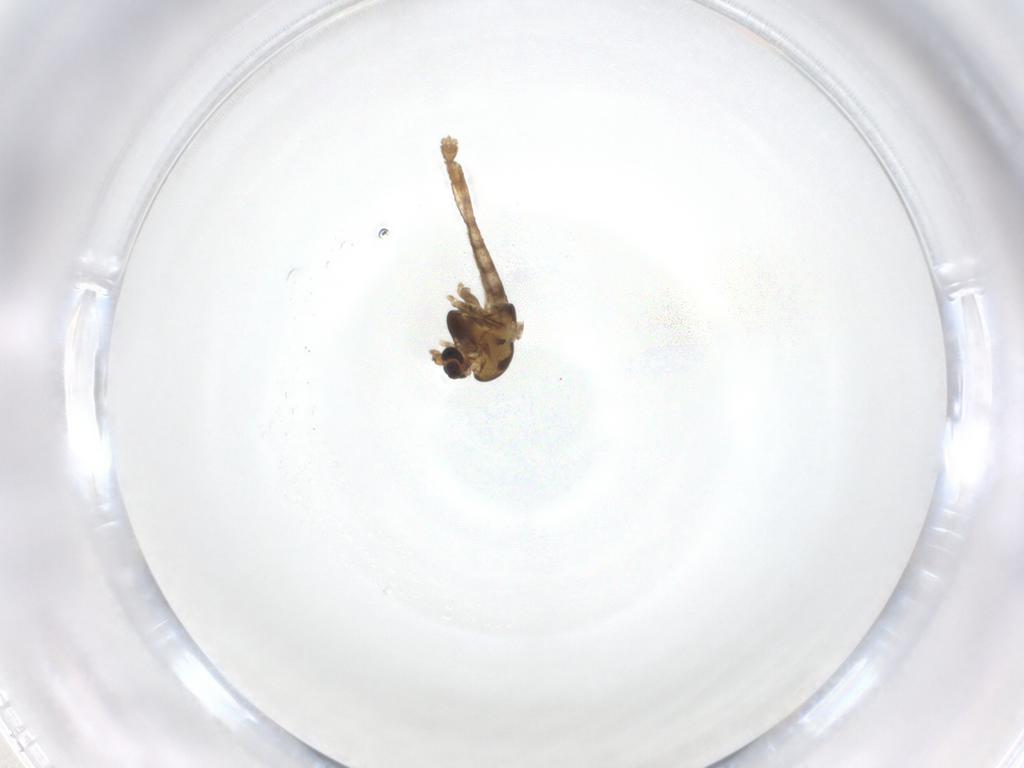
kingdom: Animalia
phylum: Arthropoda
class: Insecta
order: Diptera
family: Chironomidae
